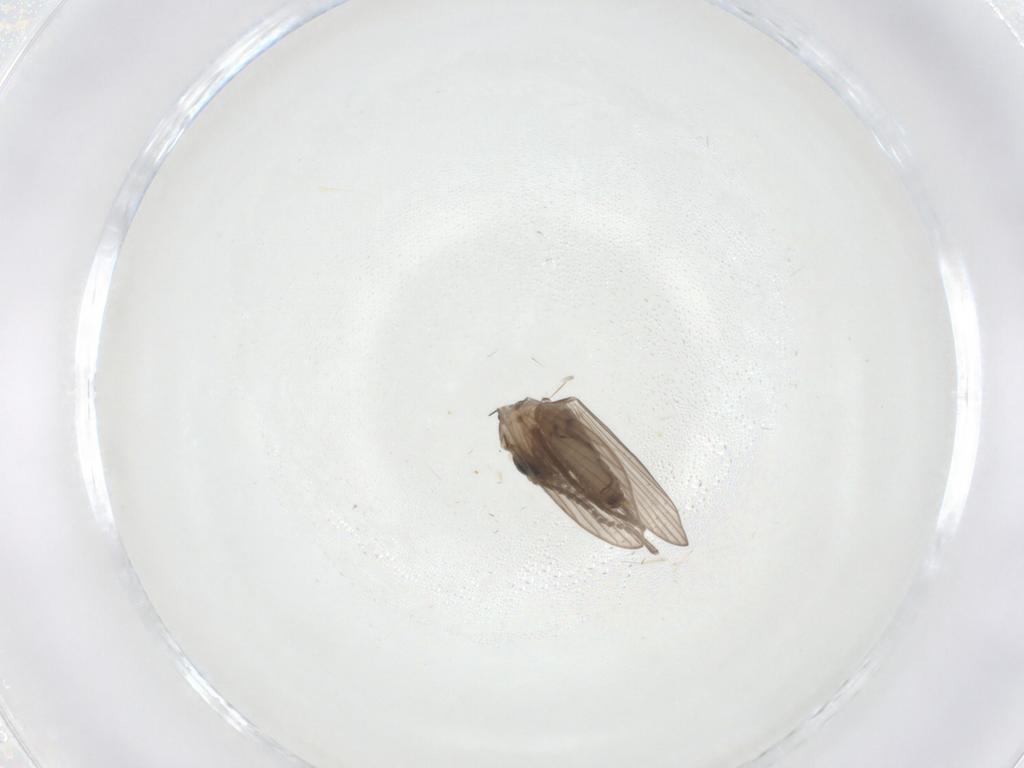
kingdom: Animalia
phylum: Arthropoda
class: Insecta
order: Diptera
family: Psychodidae
